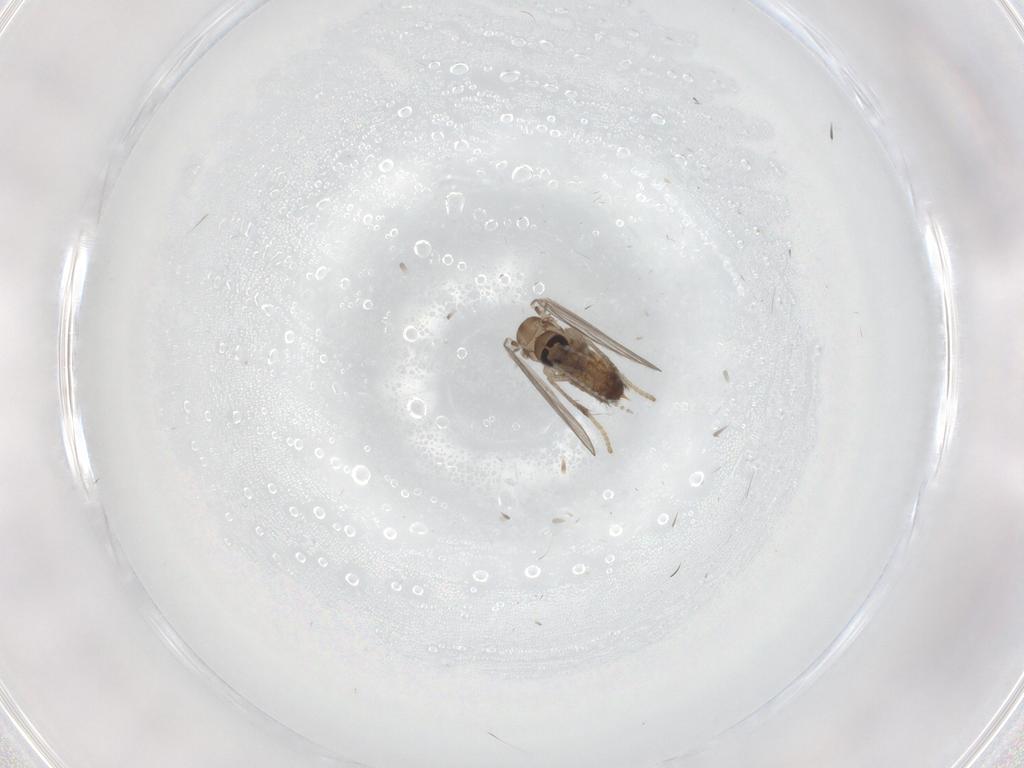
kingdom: Animalia
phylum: Arthropoda
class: Insecta
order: Diptera
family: Psychodidae
